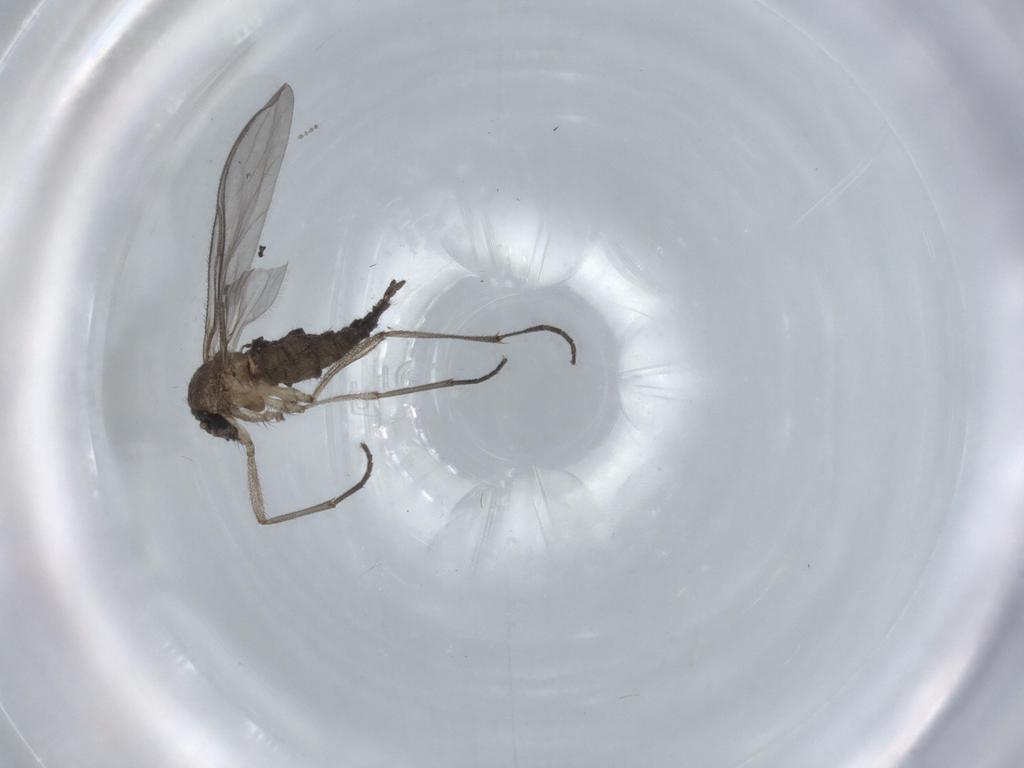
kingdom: Animalia
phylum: Arthropoda
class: Insecta
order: Diptera
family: Sciaridae
